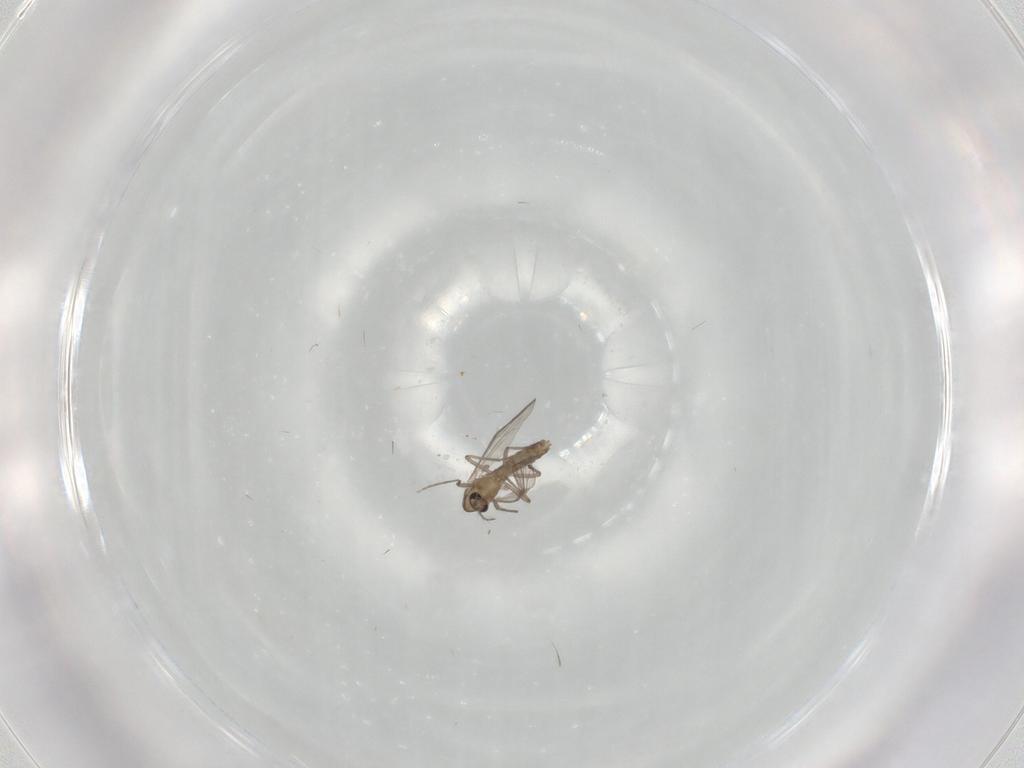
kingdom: Animalia
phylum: Arthropoda
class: Insecta
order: Diptera
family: Chironomidae
